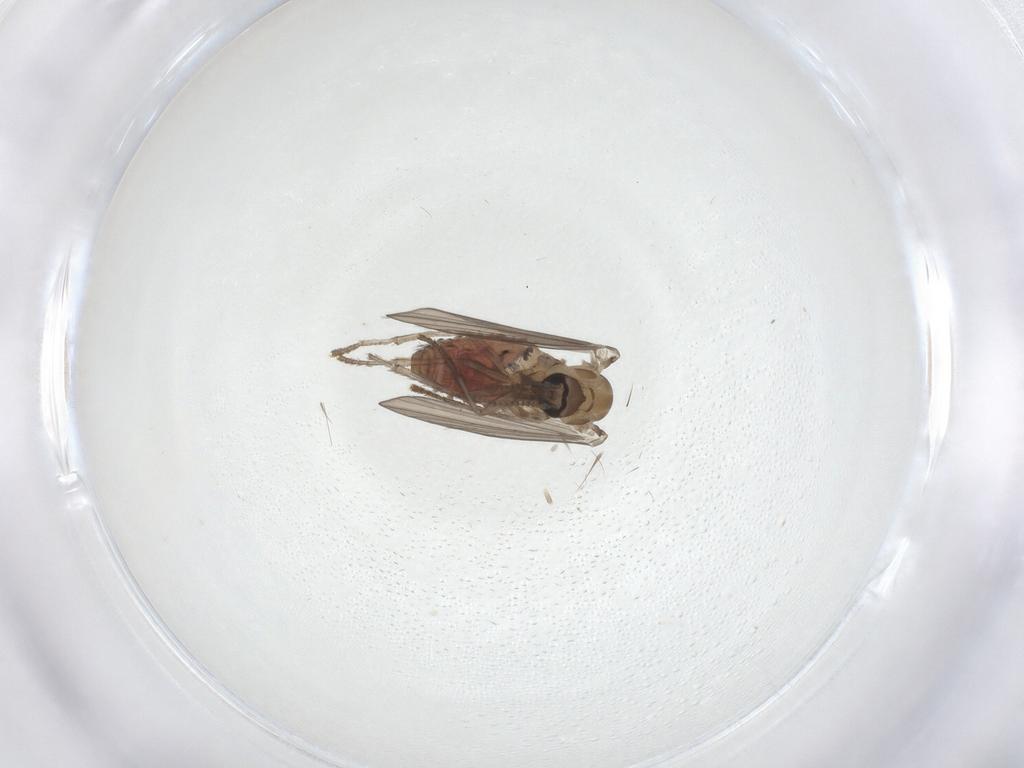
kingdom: Animalia
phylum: Arthropoda
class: Insecta
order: Diptera
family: Psychodidae
